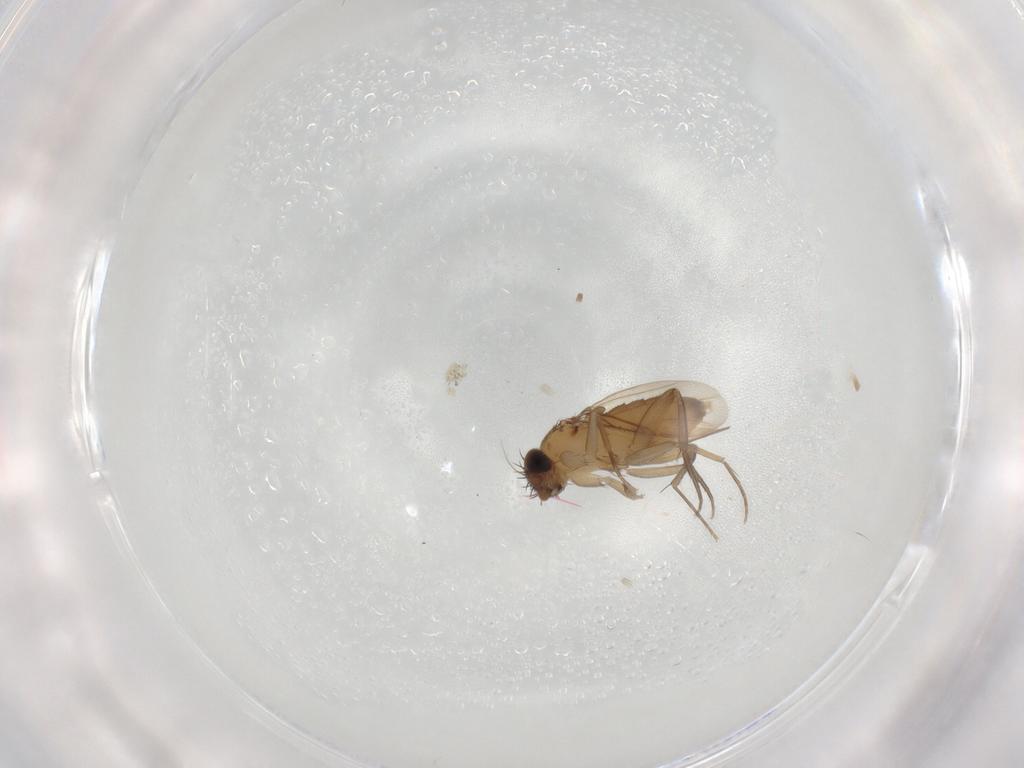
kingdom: Animalia
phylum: Arthropoda
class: Insecta
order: Diptera
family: Phoridae
